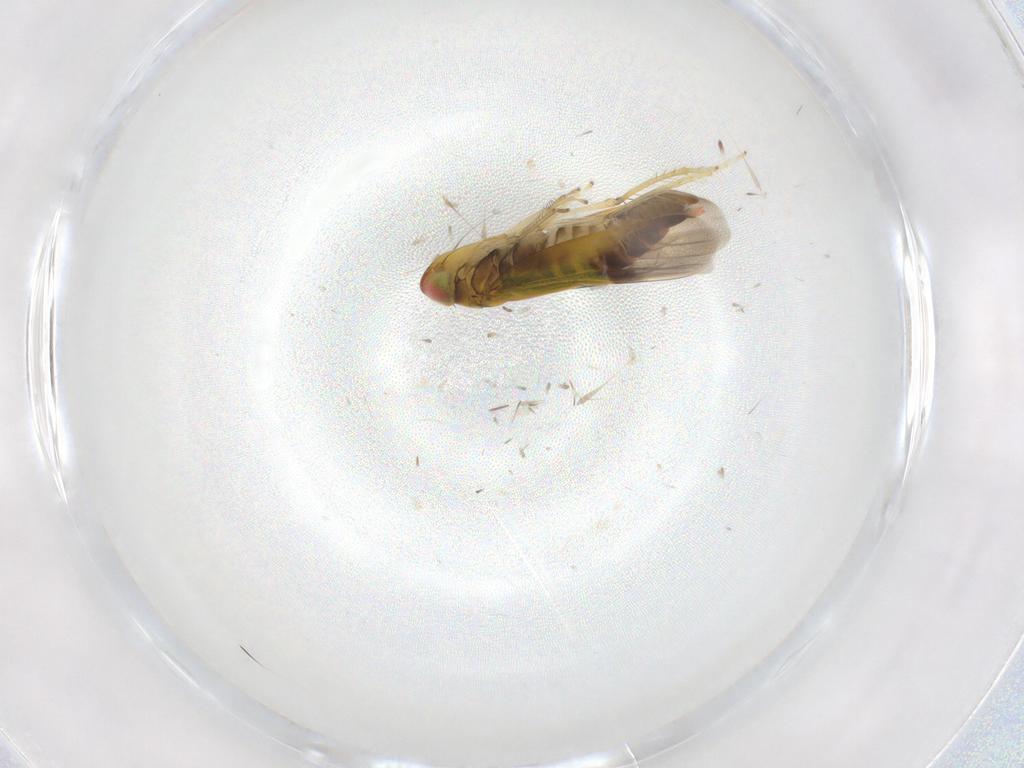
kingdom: Animalia
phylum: Arthropoda
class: Insecta
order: Hemiptera
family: Cicadellidae
